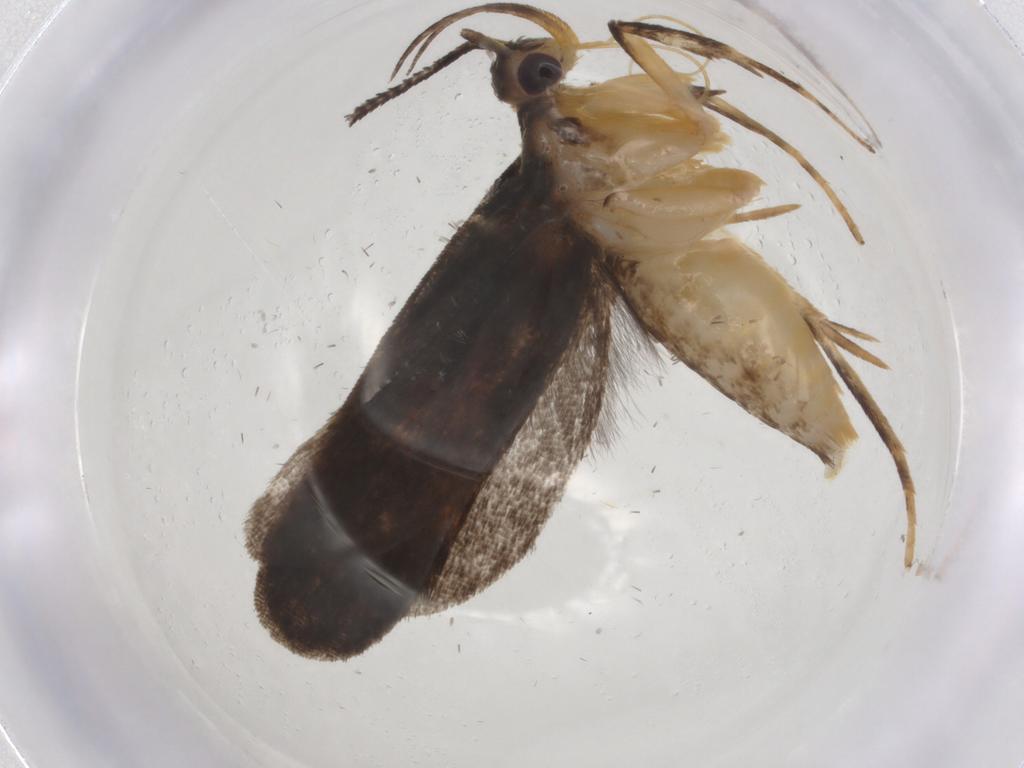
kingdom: Animalia
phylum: Arthropoda
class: Insecta
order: Lepidoptera
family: Gelechiidae
